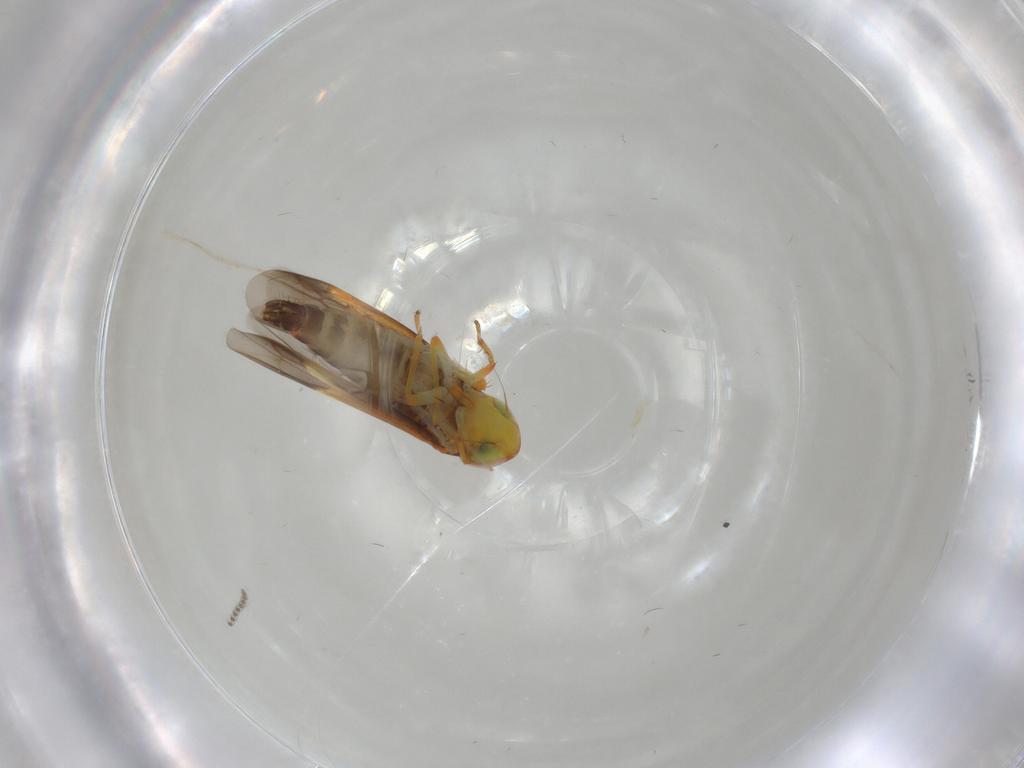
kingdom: Animalia
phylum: Arthropoda
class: Insecta
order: Hemiptera
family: Cicadellidae
